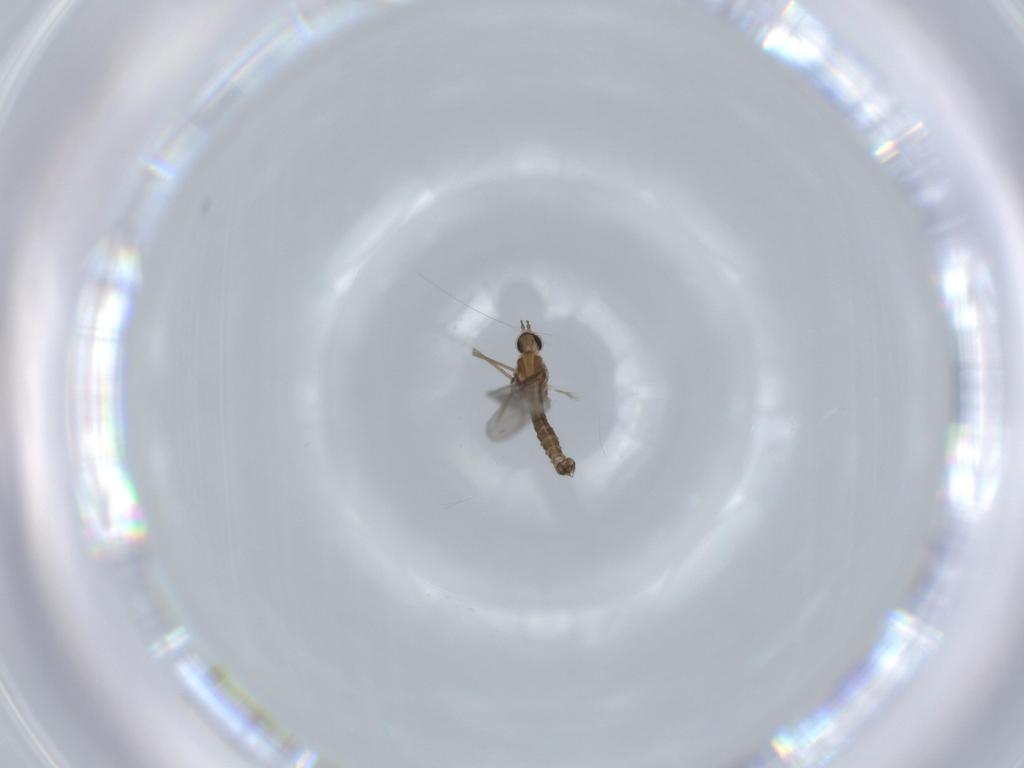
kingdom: Animalia
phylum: Arthropoda
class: Insecta
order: Diptera
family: Cecidomyiidae
